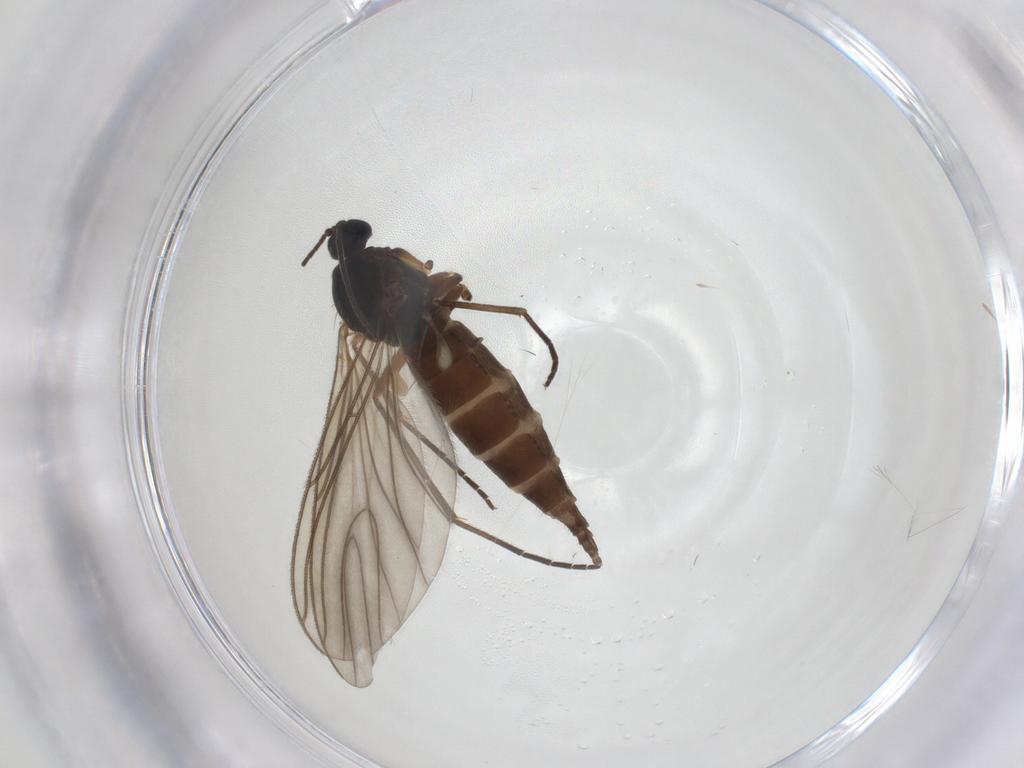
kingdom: Animalia
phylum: Arthropoda
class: Insecta
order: Diptera
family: Sciaridae
